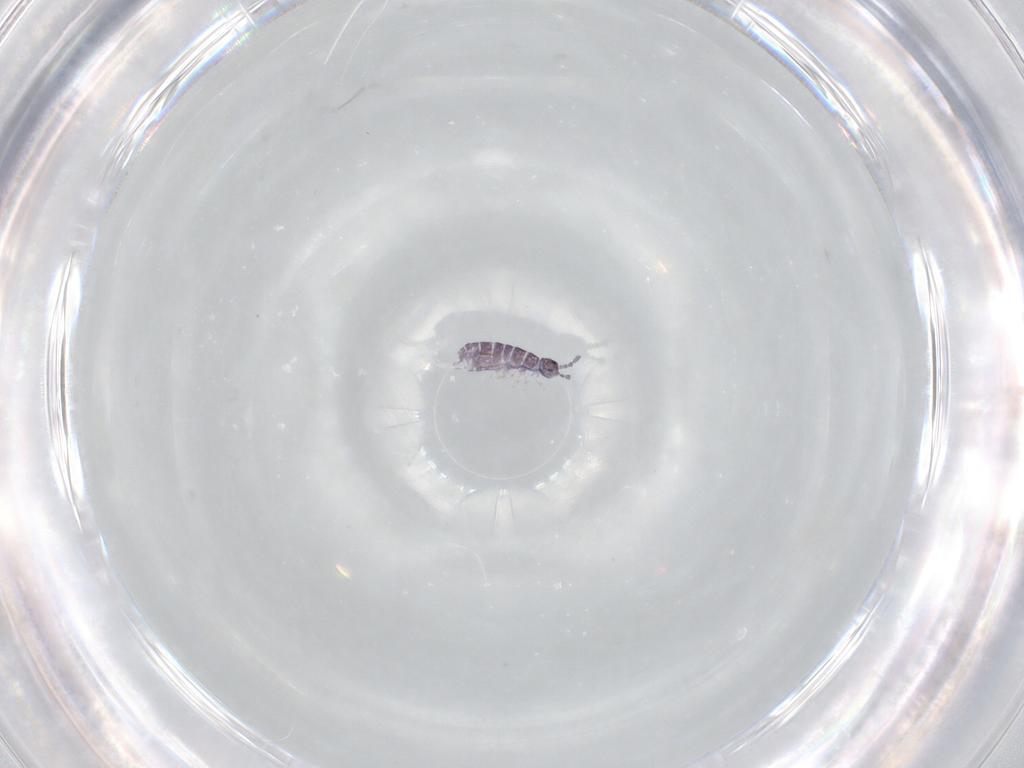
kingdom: Animalia
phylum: Arthropoda
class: Collembola
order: Entomobryomorpha
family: Isotomidae
